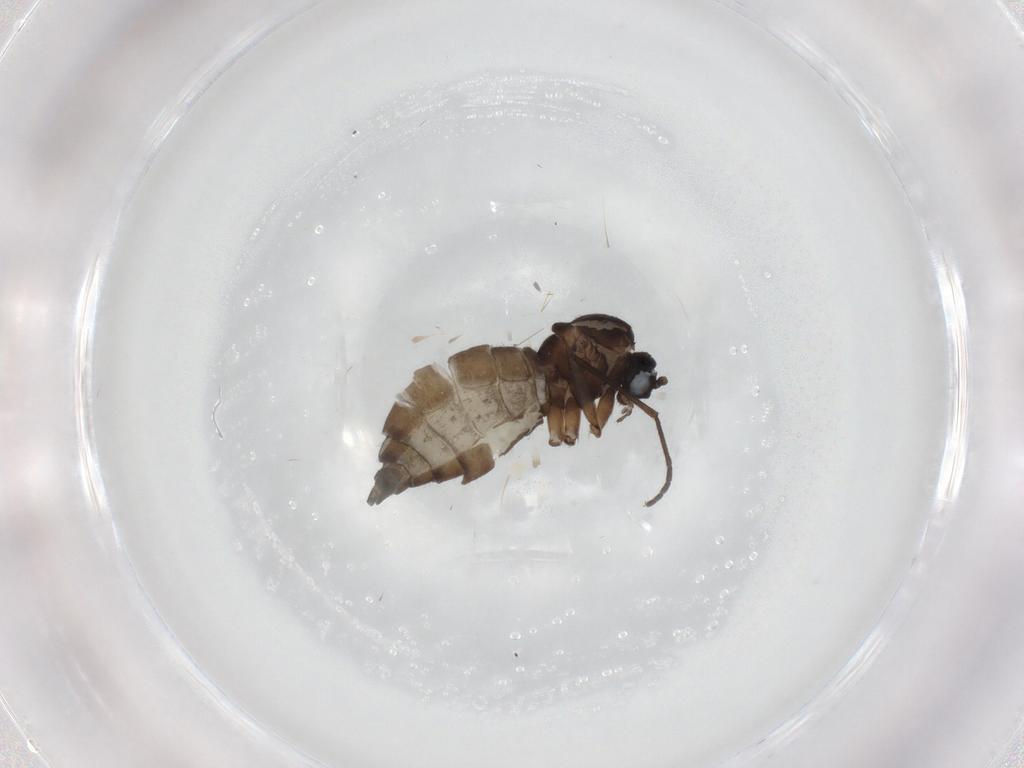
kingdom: Animalia
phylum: Arthropoda
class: Insecta
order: Diptera
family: Sciaridae
